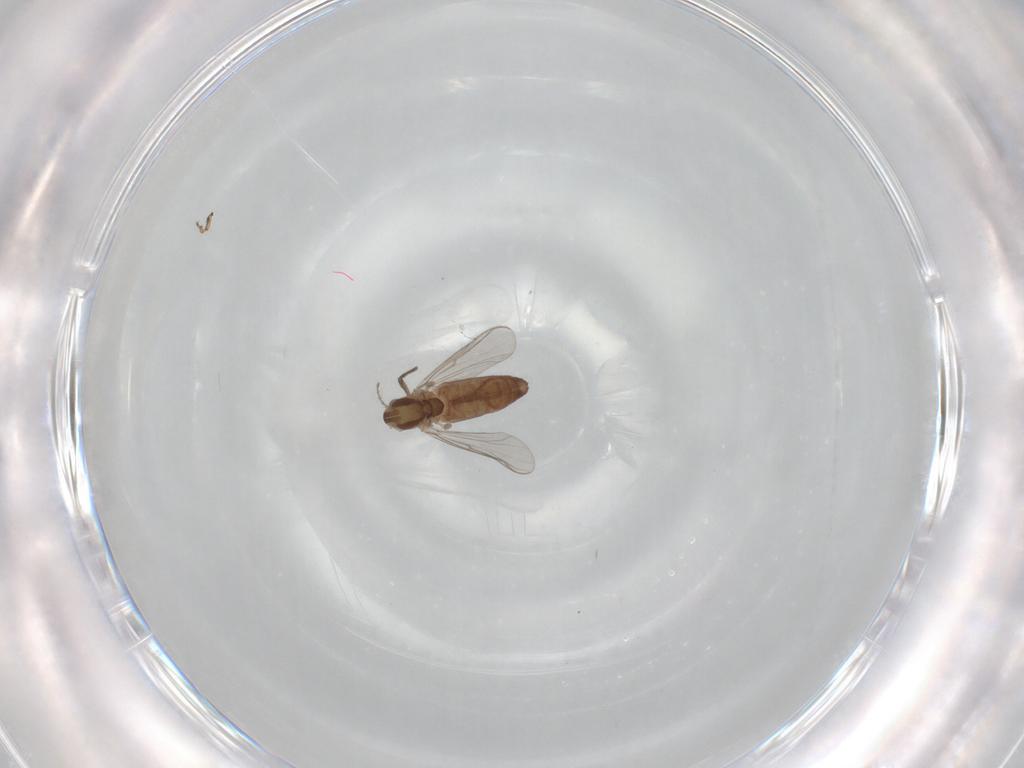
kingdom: Animalia
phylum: Arthropoda
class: Insecta
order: Diptera
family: Chironomidae
